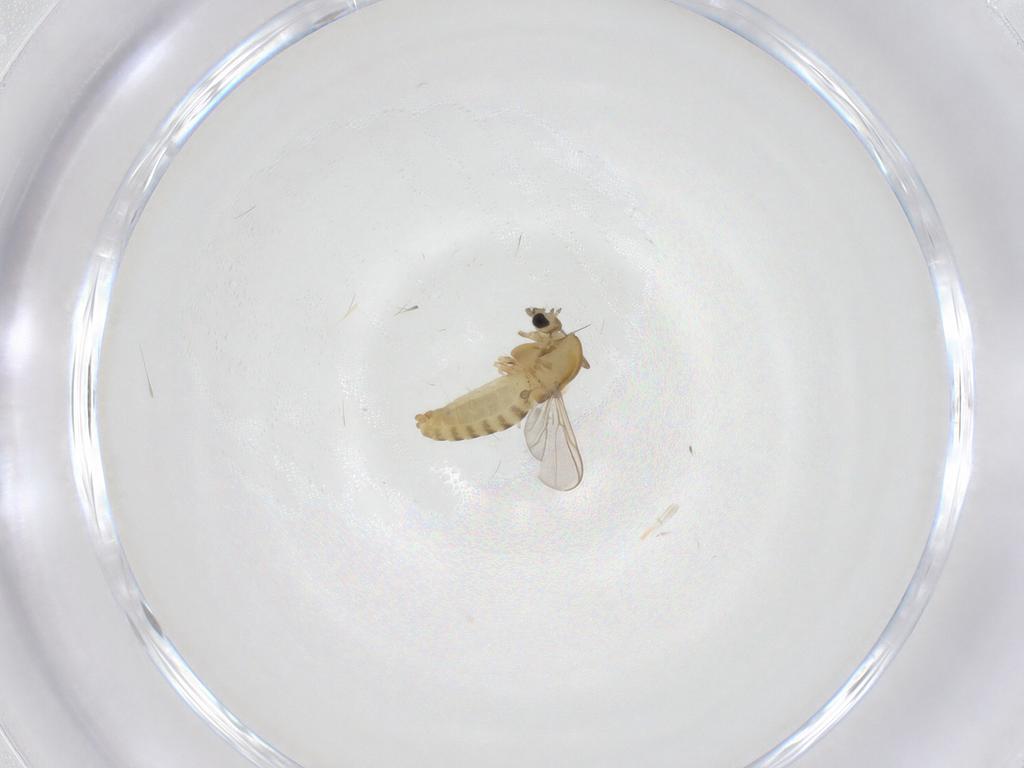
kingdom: Animalia
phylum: Arthropoda
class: Insecta
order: Diptera
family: Chironomidae
